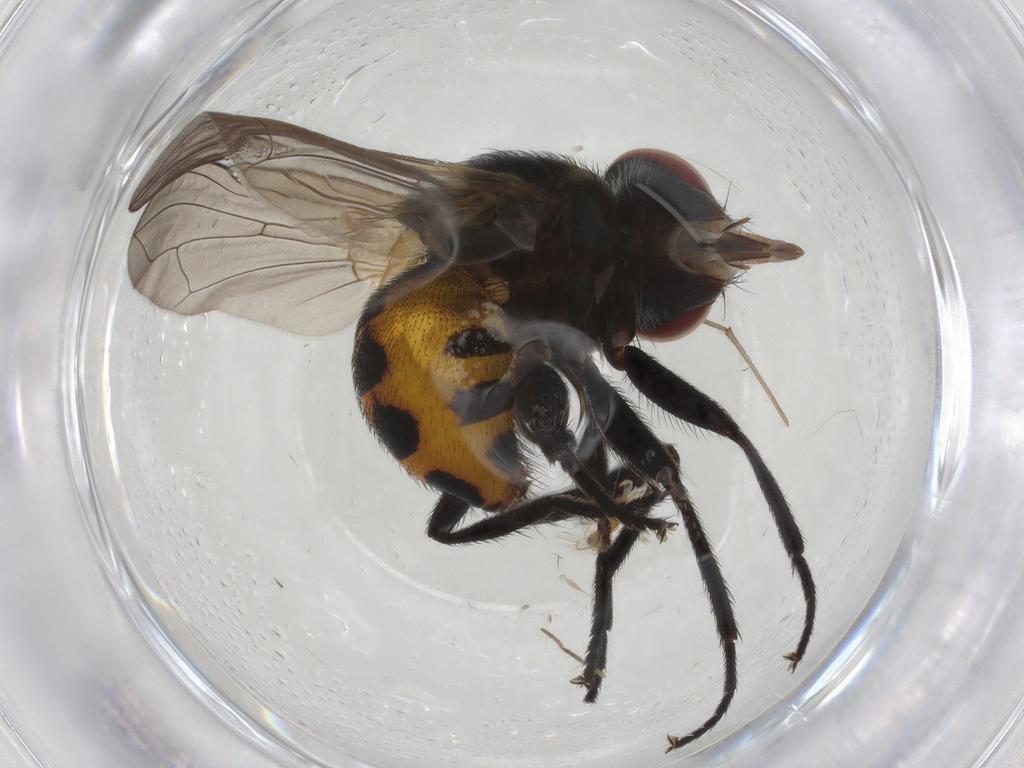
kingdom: Animalia
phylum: Arthropoda
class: Insecta
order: Diptera
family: Tachinidae
